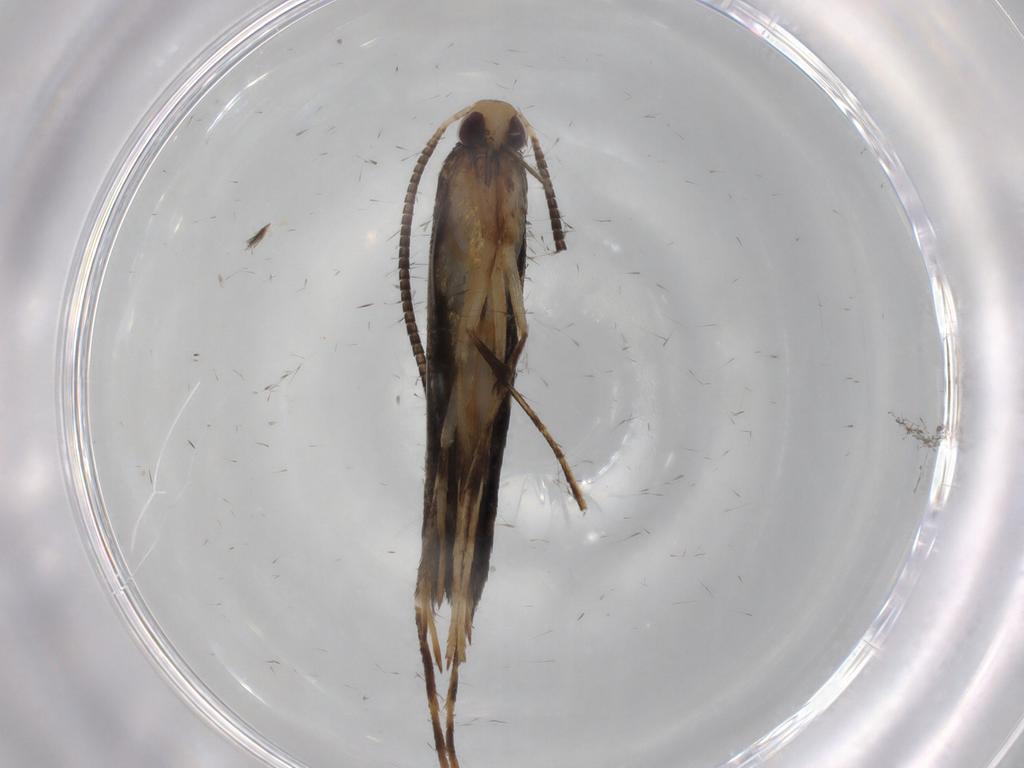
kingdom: Animalia
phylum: Arthropoda
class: Insecta
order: Lepidoptera
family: Gracillariidae
